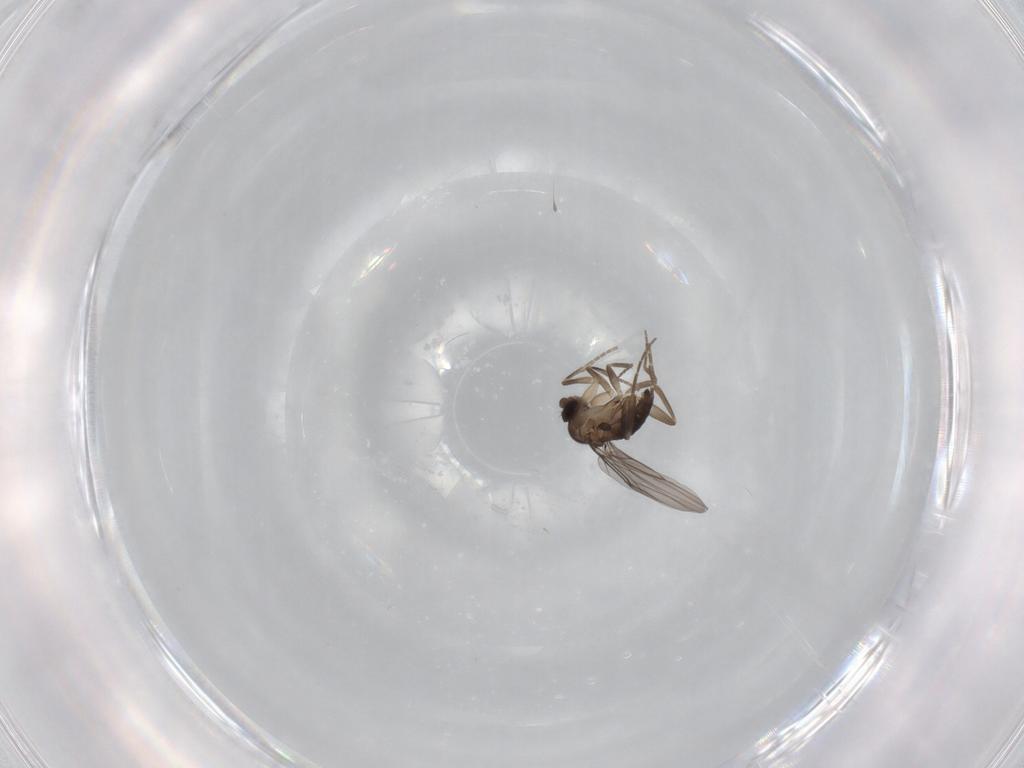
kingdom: Animalia
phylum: Arthropoda
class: Insecta
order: Diptera
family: Phoridae
